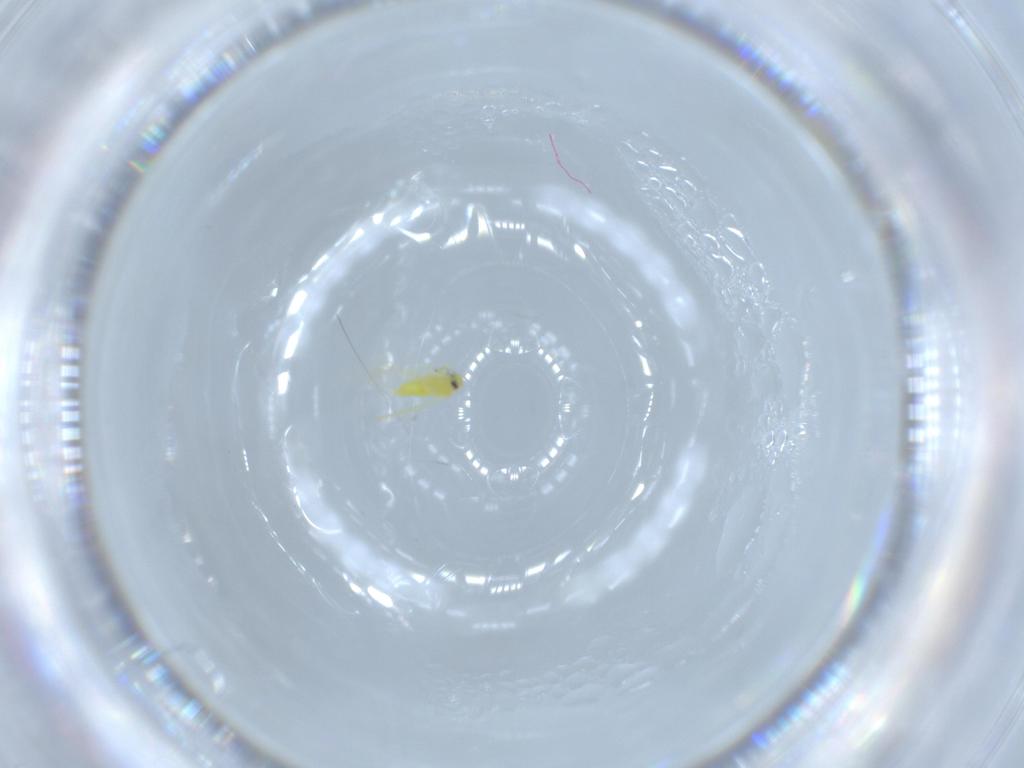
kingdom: Animalia
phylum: Arthropoda
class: Insecta
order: Hemiptera
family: Aleyrodidae
